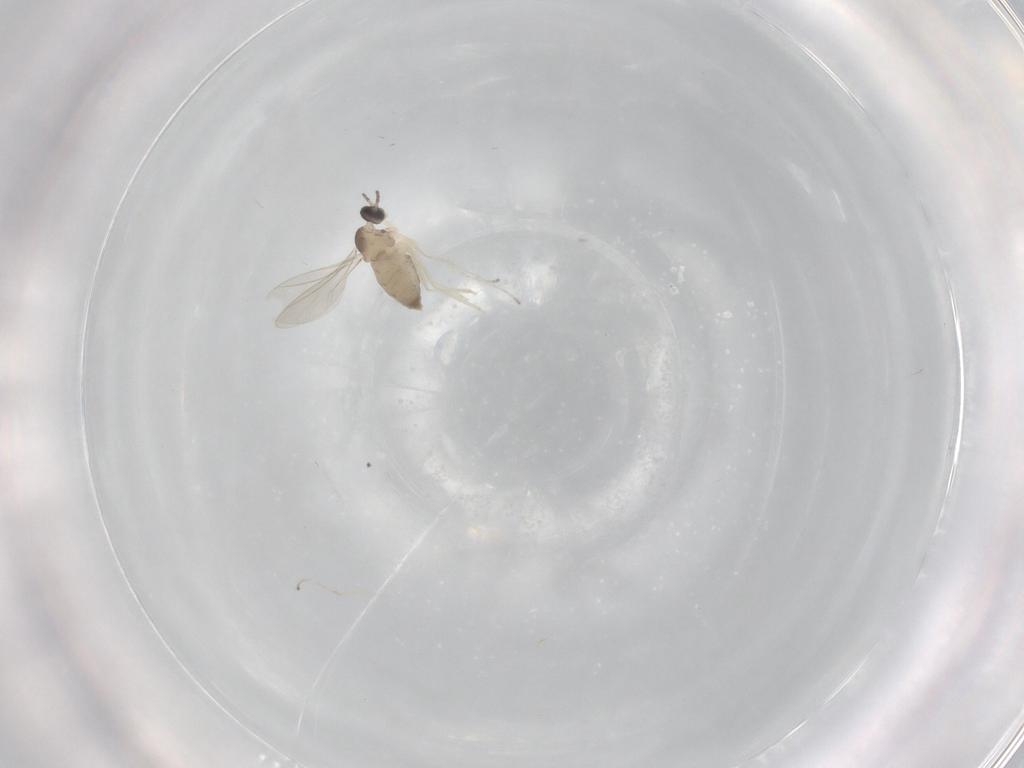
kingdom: Animalia
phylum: Arthropoda
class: Insecta
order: Diptera
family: Cecidomyiidae
